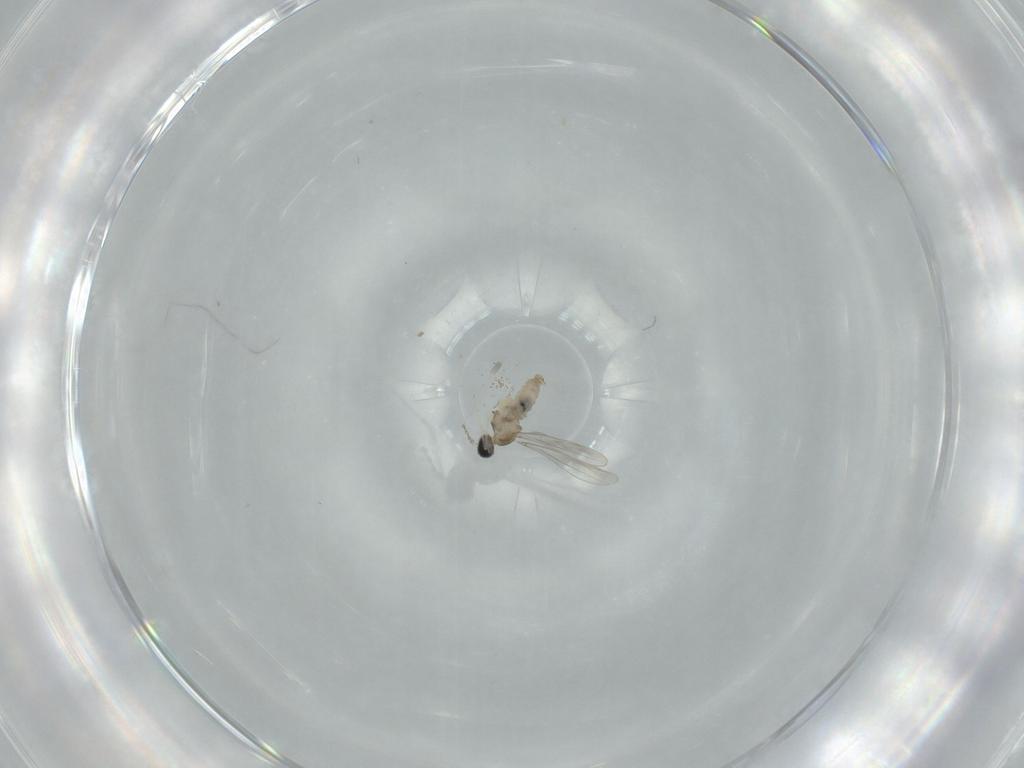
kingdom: Animalia
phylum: Arthropoda
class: Insecta
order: Diptera
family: Cecidomyiidae
